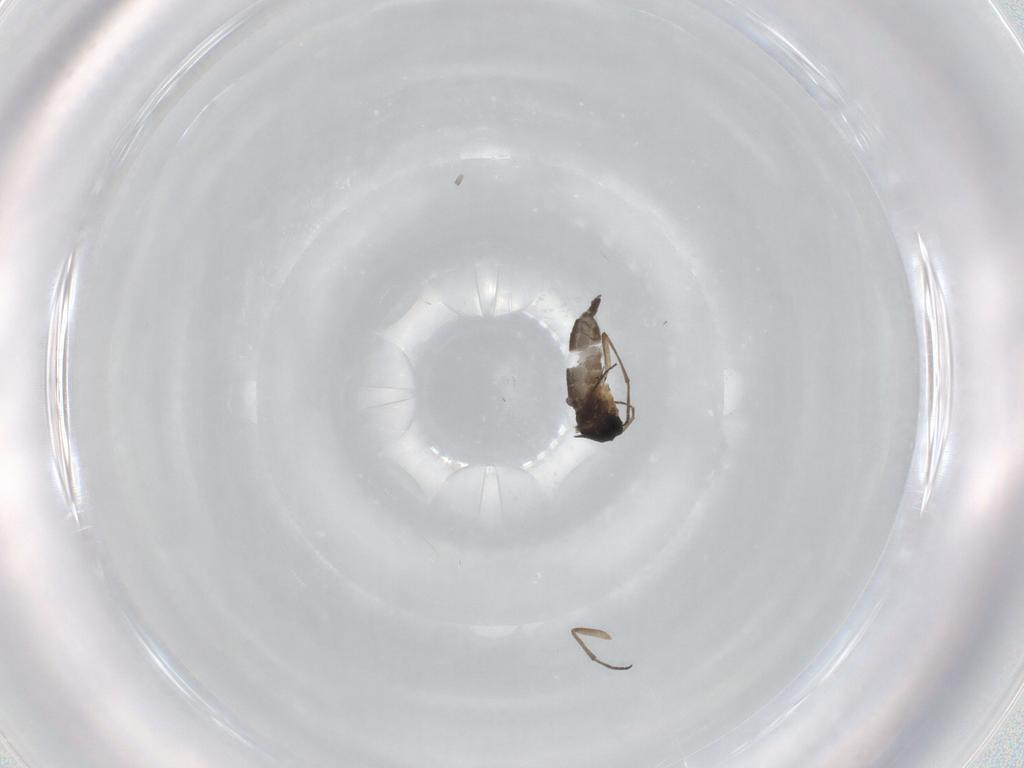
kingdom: Animalia
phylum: Arthropoda
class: Insecta
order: Diptera
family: Sciaridae
